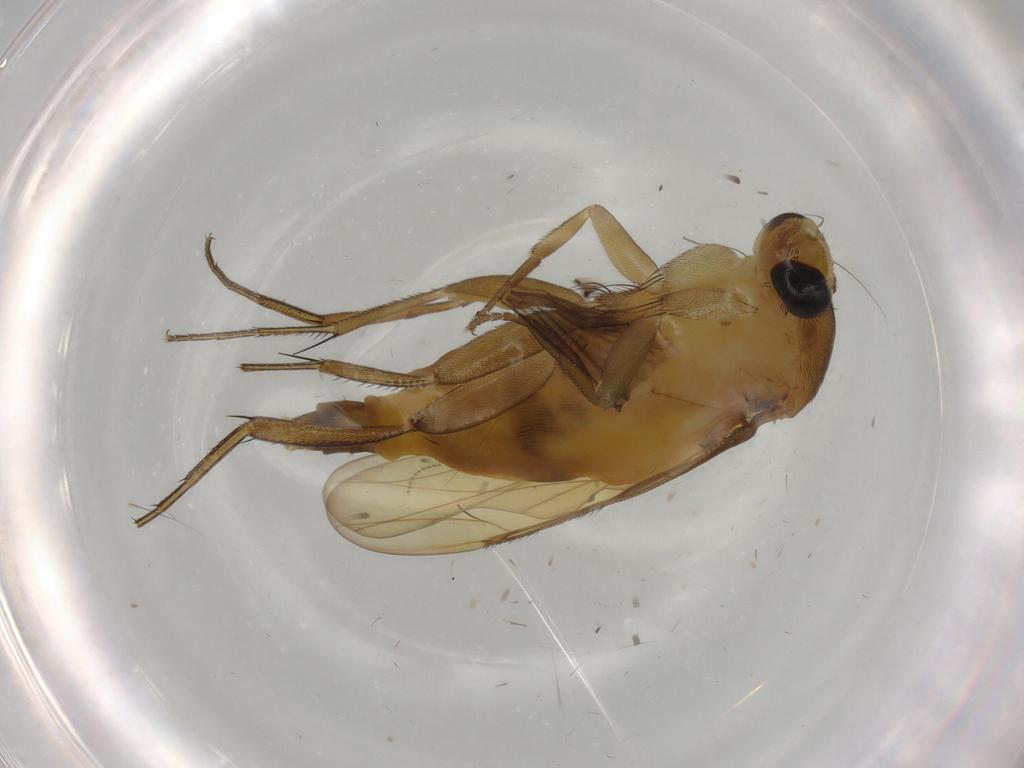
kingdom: Animalia
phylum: Arthropoda
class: Insecta
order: Diptera
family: Phoridae
